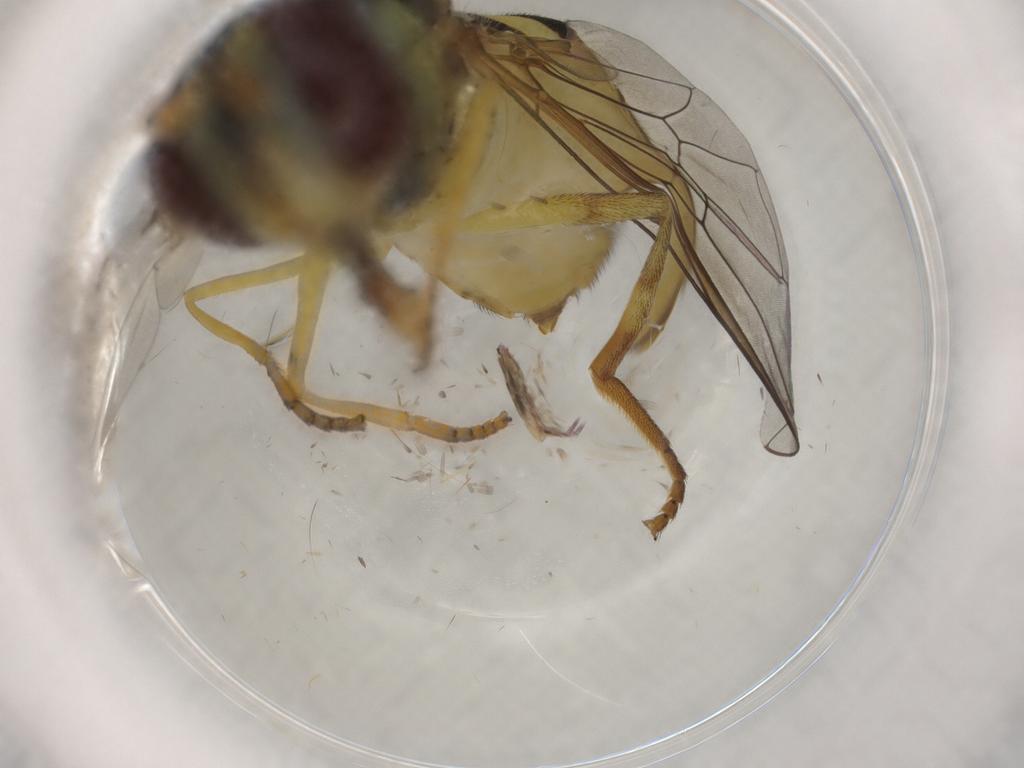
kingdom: Animalia
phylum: Arthropoda
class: Insecta
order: Diptera
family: Syrphidae
